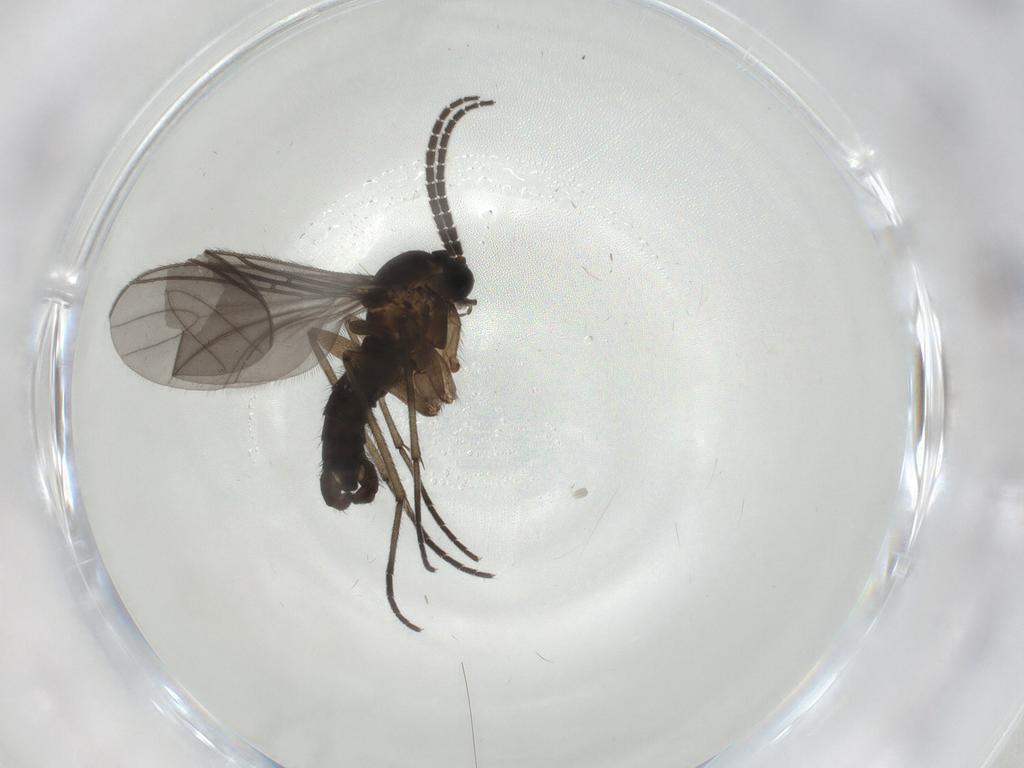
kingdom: Animalia
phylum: Arthropoda
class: Insecta
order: Diptera
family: Sciaridae
